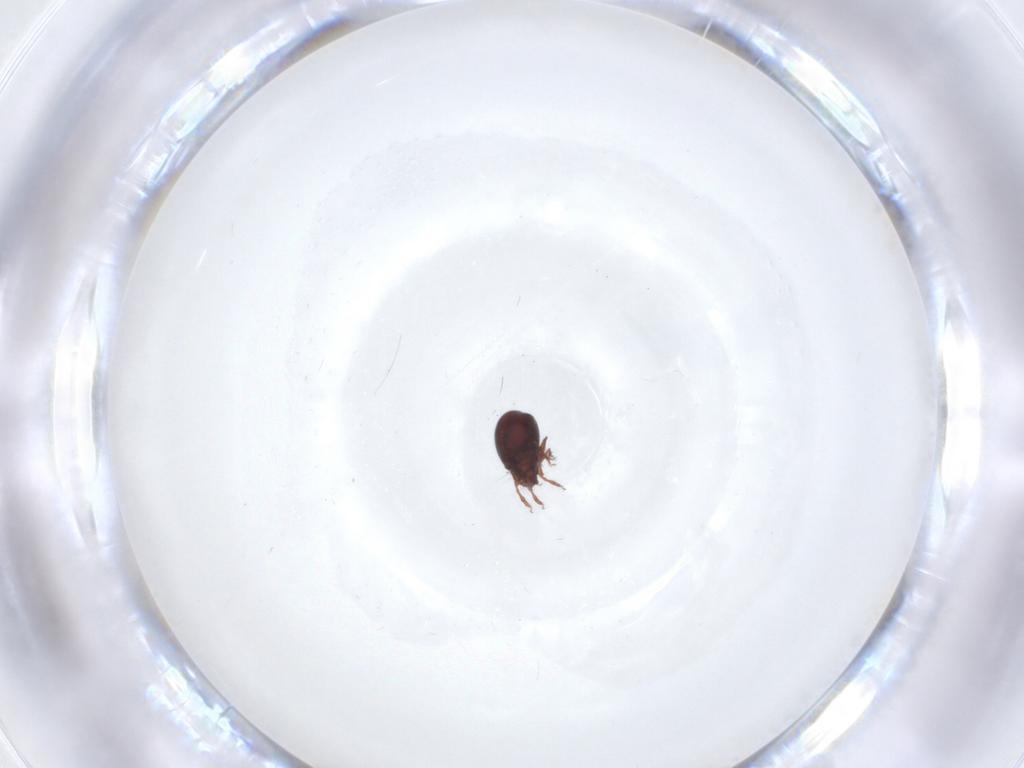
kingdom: Animalia
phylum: Arthropoda
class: Arachnida
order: Sarcoptiformes
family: Ceratozetidae
